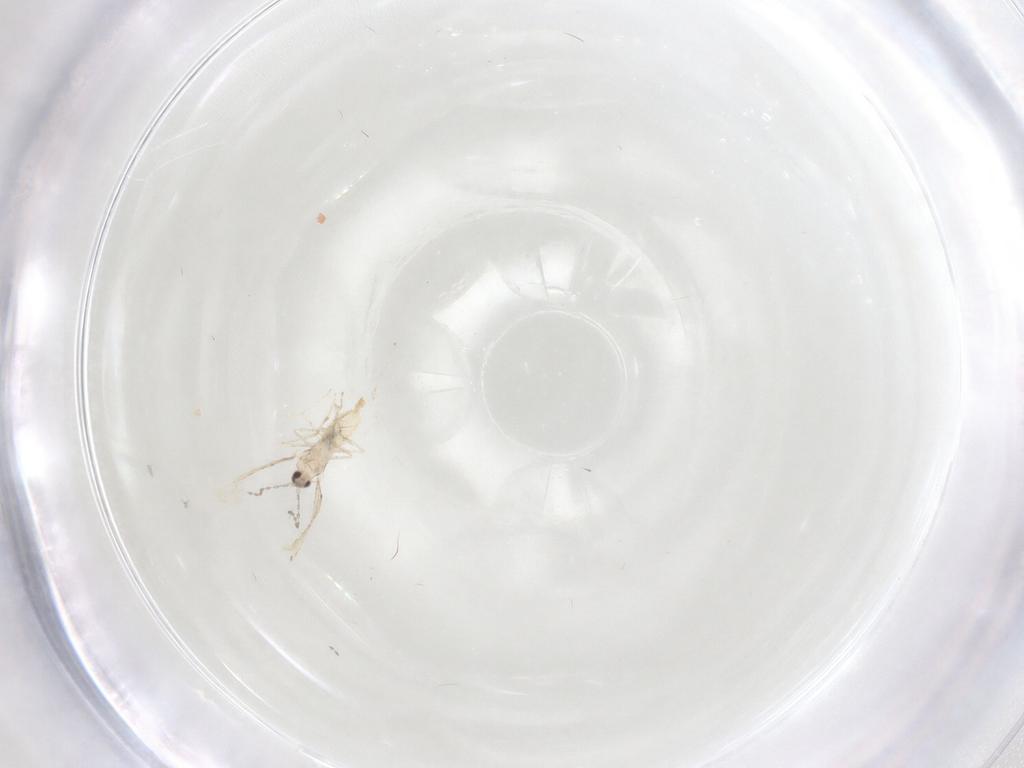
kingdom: Animalia
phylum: Arthropoda
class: Insecta
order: Diptera
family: Cecidomyiidae
